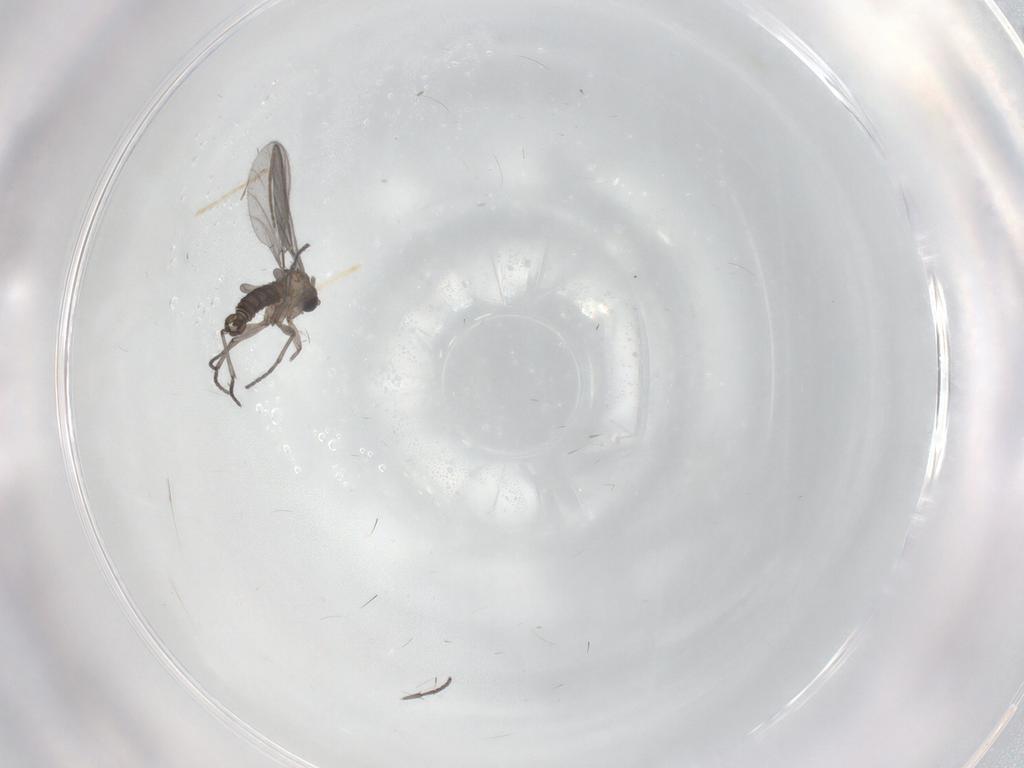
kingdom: Animalia
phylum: Arthropoda
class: Insecta
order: Diptera
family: Sciaridae
